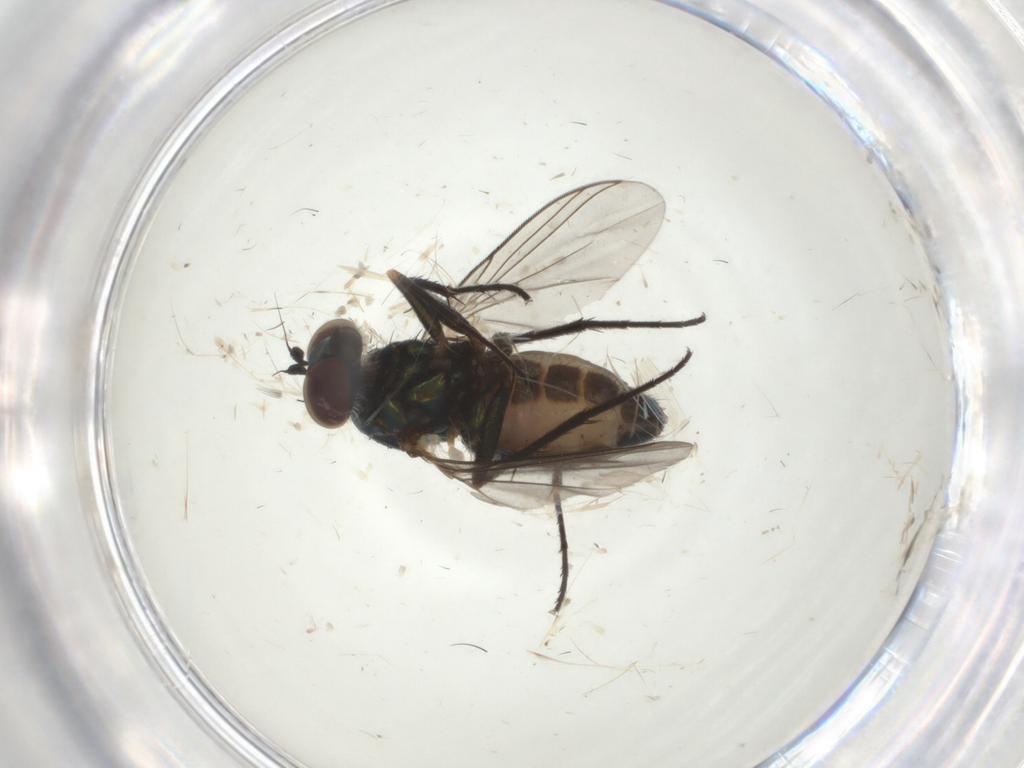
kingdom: Animalia
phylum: Arthropoda
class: Insecta
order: Diptera
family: Dolichopodidae
